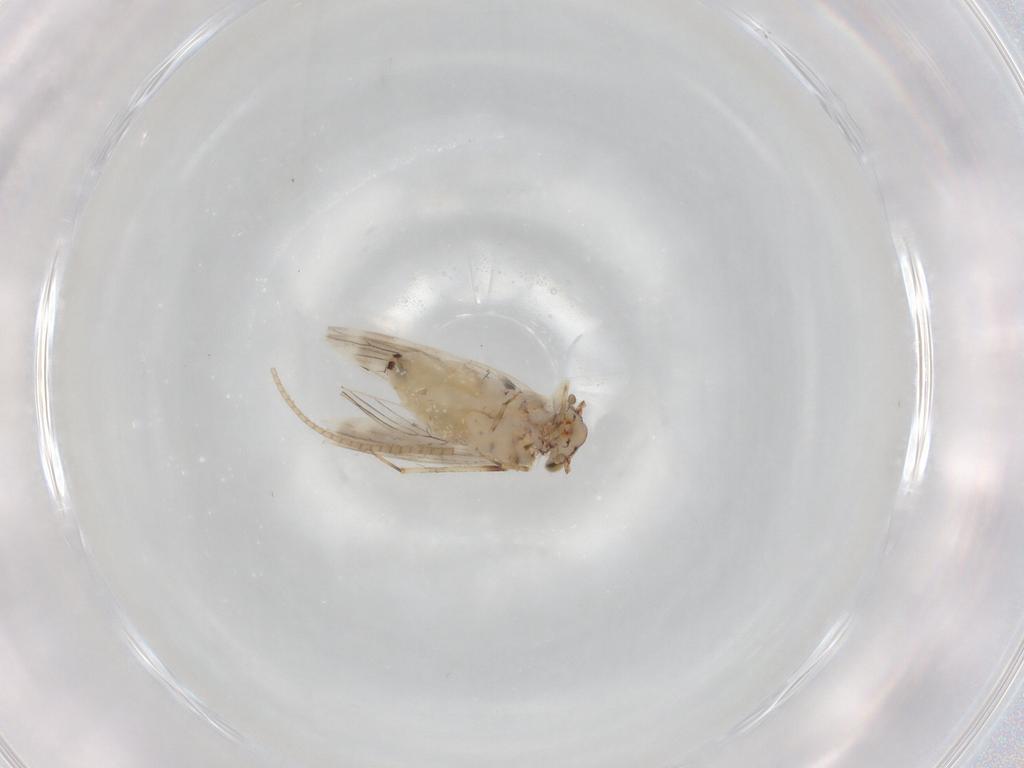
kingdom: Animalia
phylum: Arthropoda
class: Insecta
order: Psocodea
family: Lepidopsocidae
